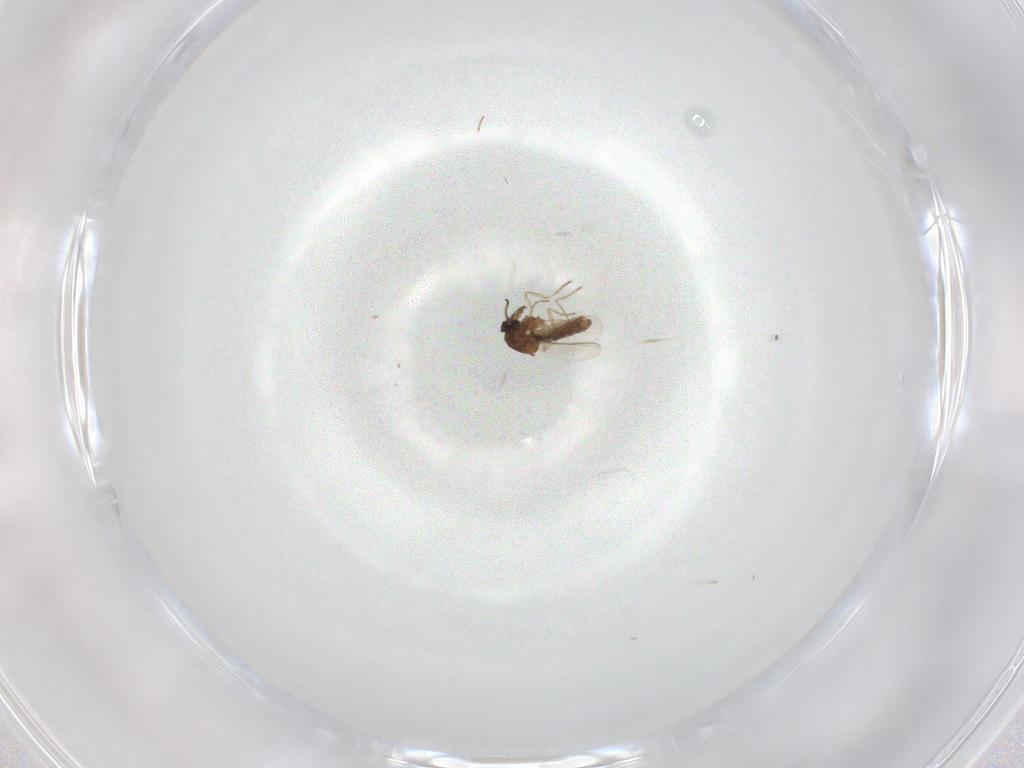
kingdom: Animalia
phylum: Arthropoda
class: Insecta
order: Diptera
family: Ceratopogonidae
